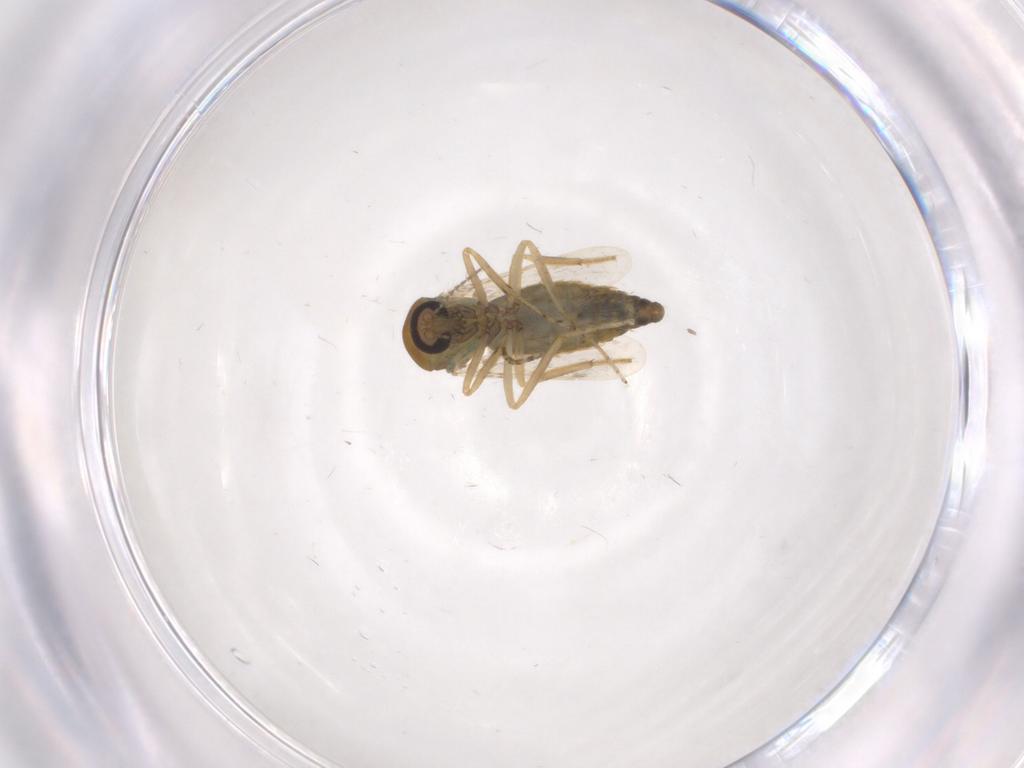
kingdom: Animalia
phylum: Arthropoda
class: Insecta
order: Diptera
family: Ceratopogonidae
